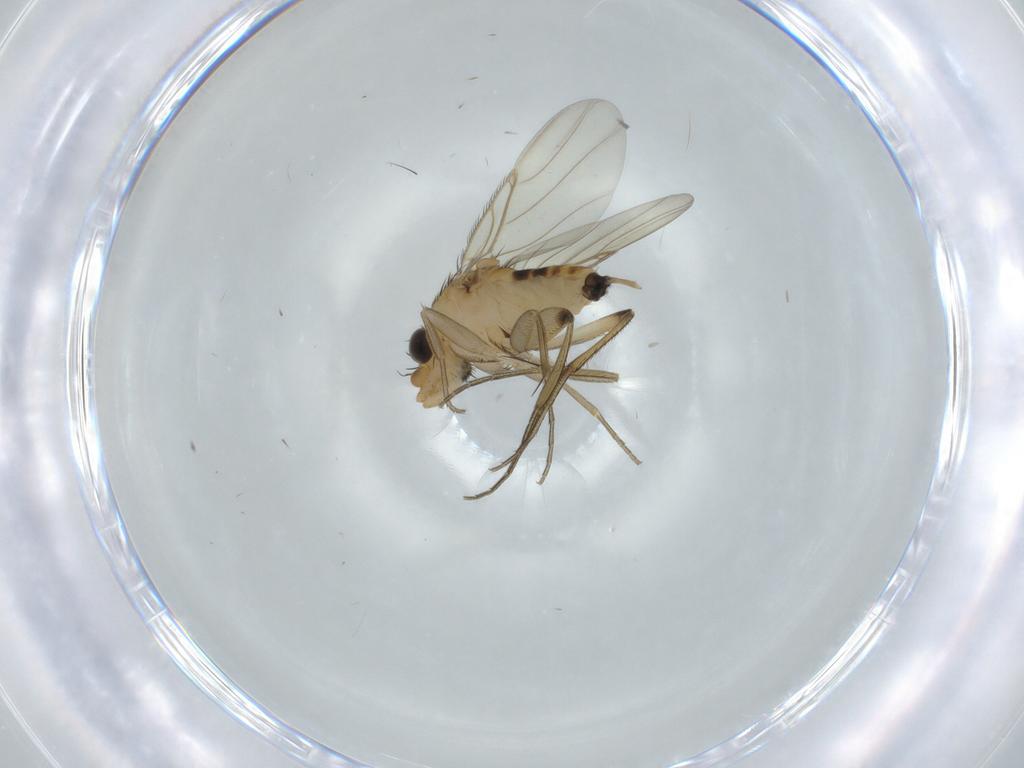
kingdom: Animalia
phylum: Arthropoda
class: Insecta
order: Diptera
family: Phoridae
